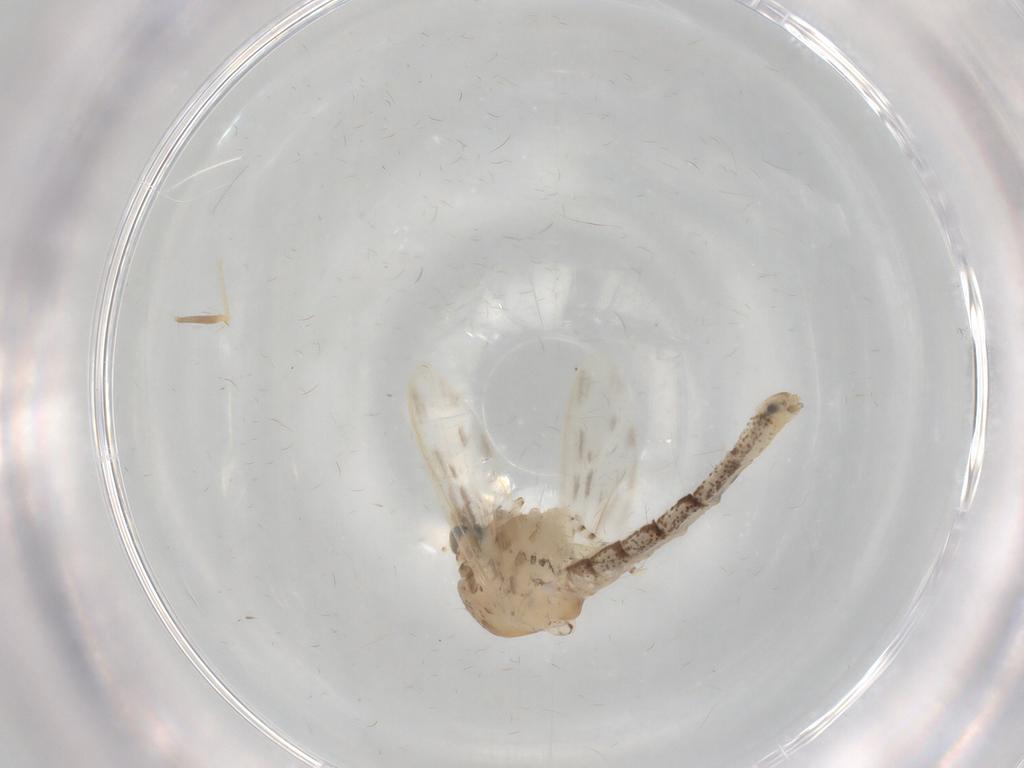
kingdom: Animalia
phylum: Arthropoda
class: Insecta
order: Diptera
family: Chaoboridae
